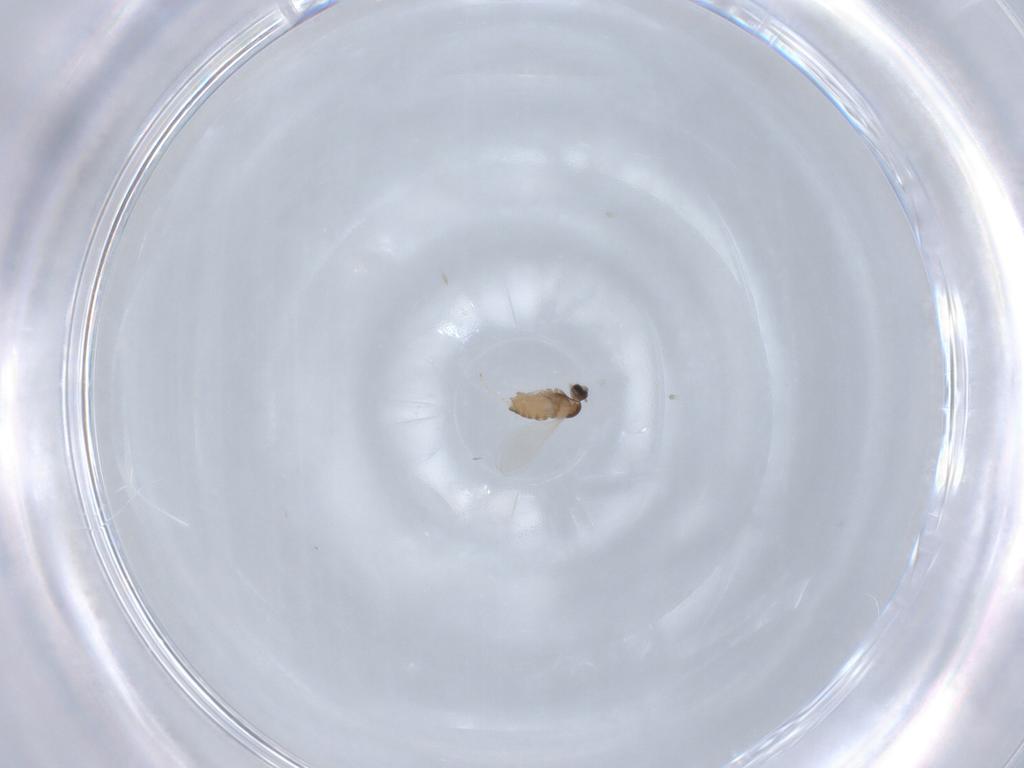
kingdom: Animalia
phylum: Arthropoda
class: Insecta
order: Diptera
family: Cecidomyiidae
